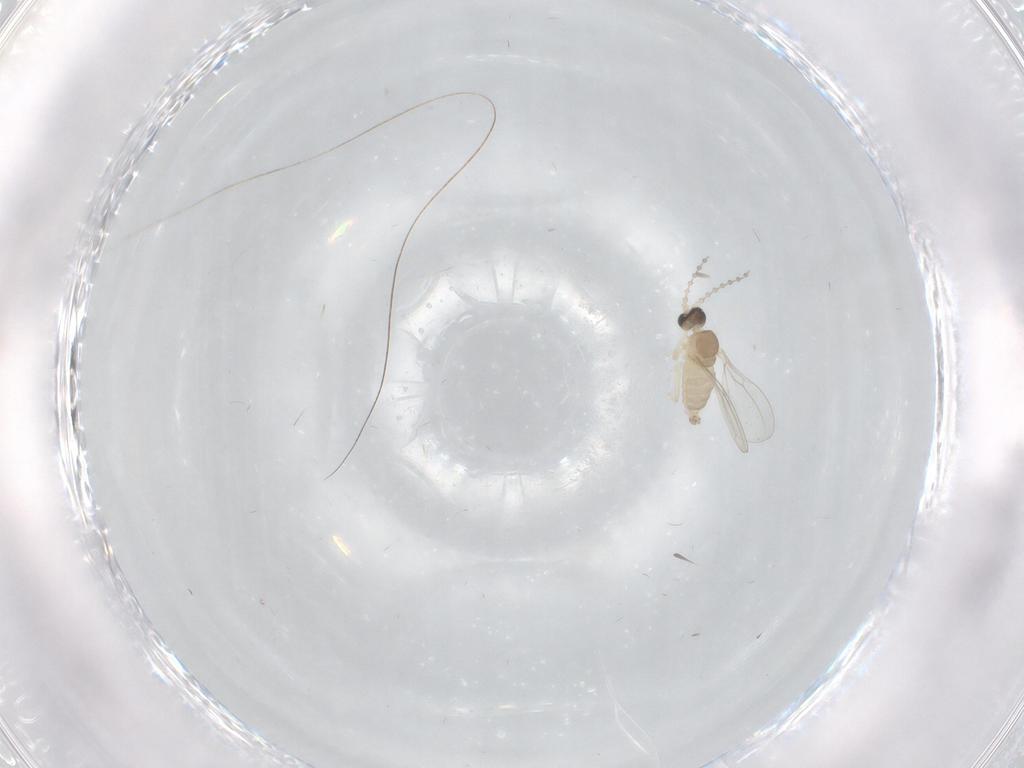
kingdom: Animalia
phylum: Arthropoda
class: Insecta
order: Diptera
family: Cecidomyiidae
